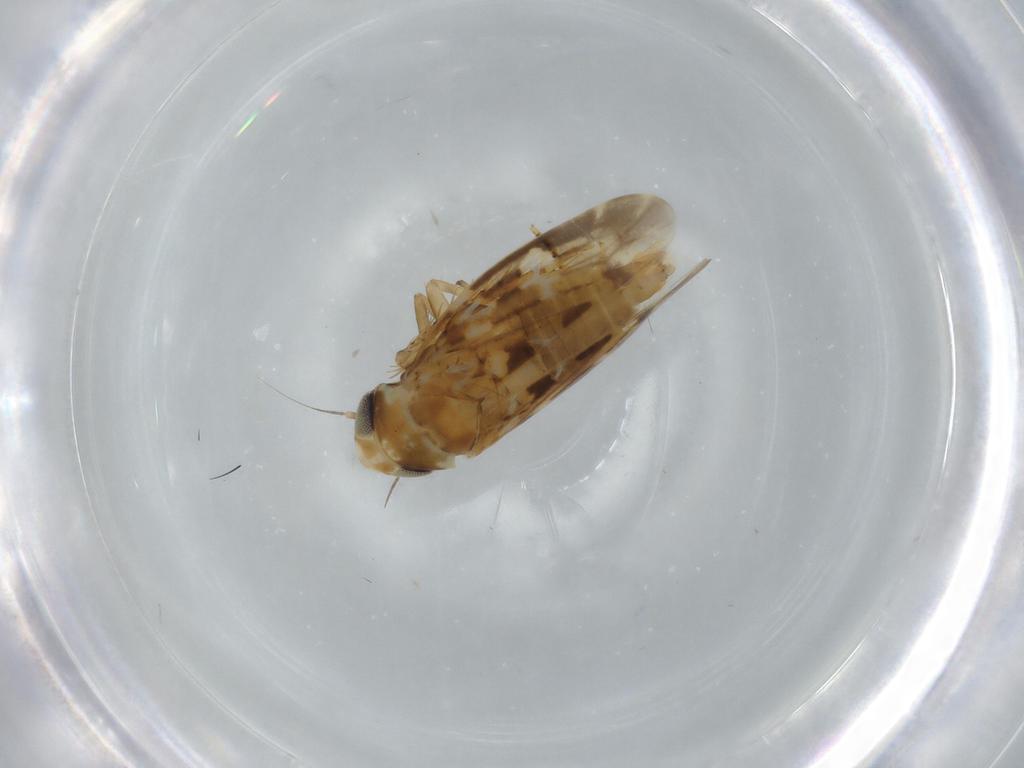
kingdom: Animalia
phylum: Arthropoda
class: Insecta
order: Hemiptera
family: Cicadellidae
